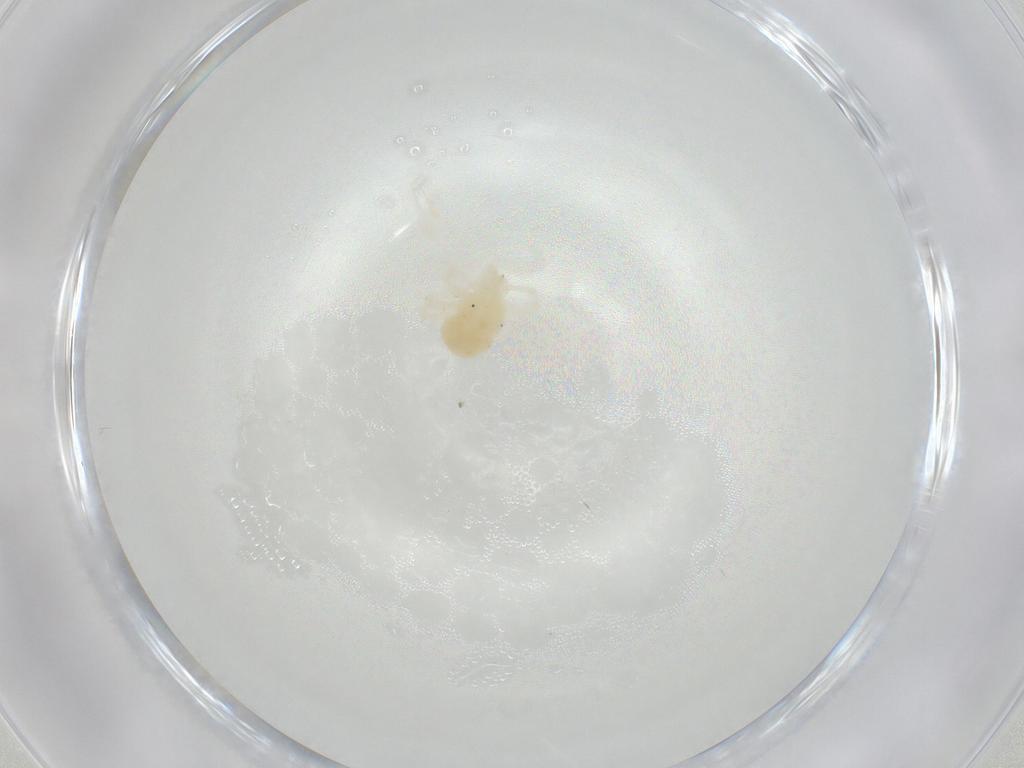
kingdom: Animalia
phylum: Arthropoda
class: Arachnida
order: Trombidiformes
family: Anystidae
